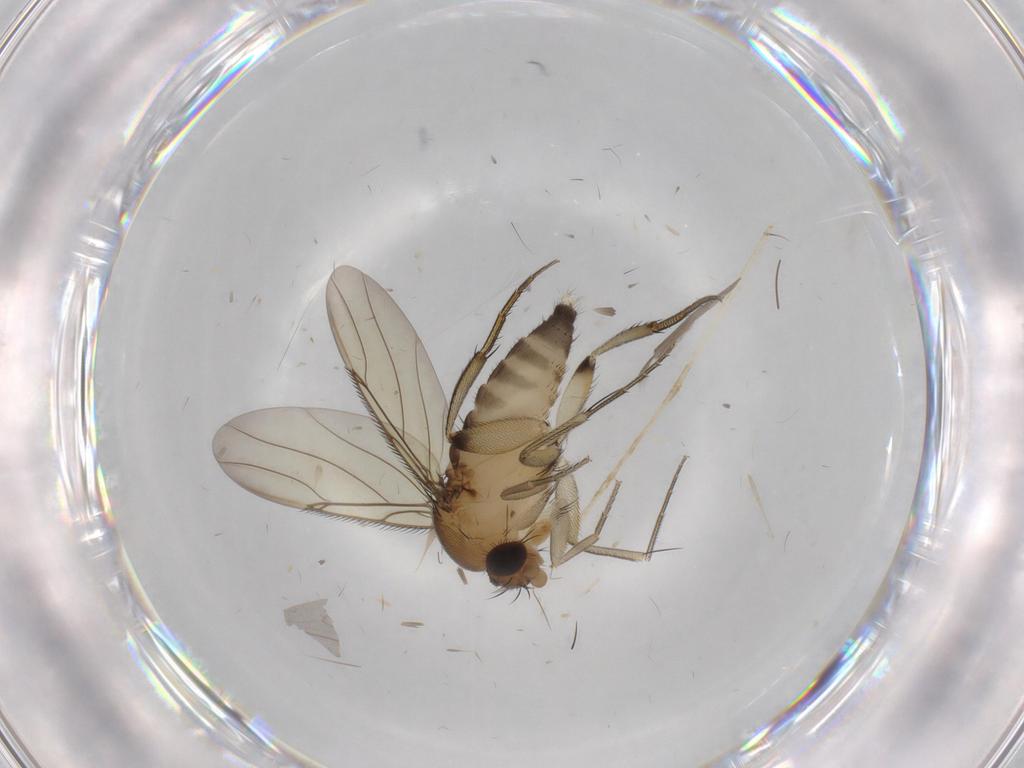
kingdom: Animalia
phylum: Arthropoda
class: Insecta
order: Diptera
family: Phoridae
